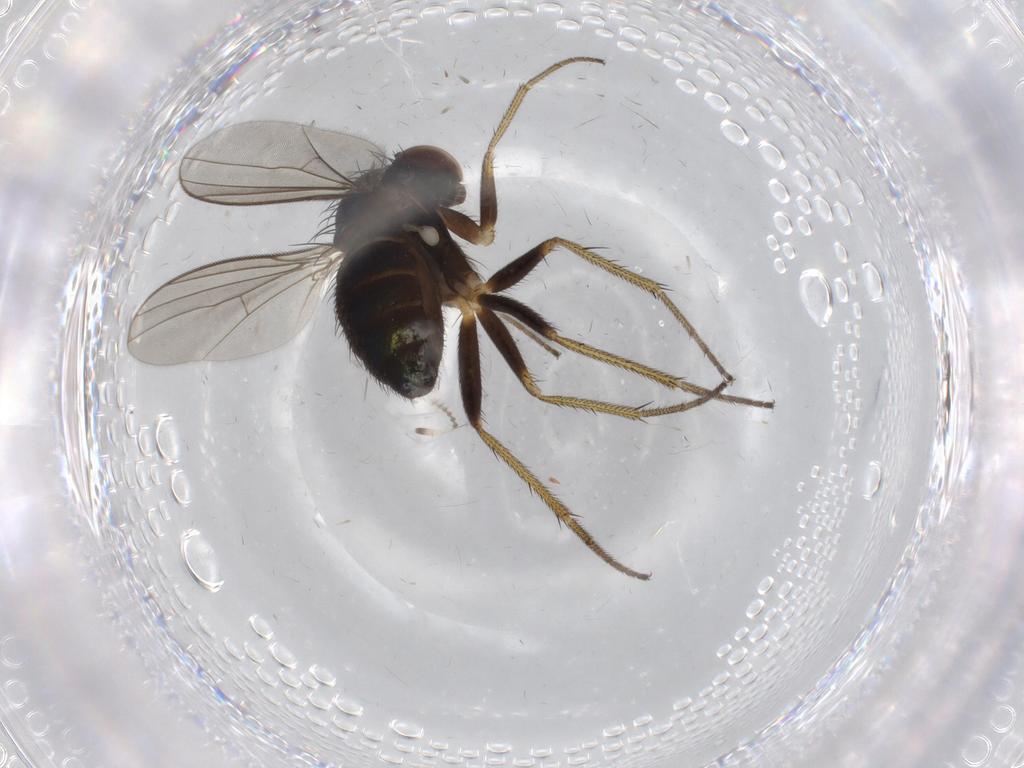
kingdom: Animalia
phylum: Arthropoda
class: Insecta
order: Diptera
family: Dolichopodidae
